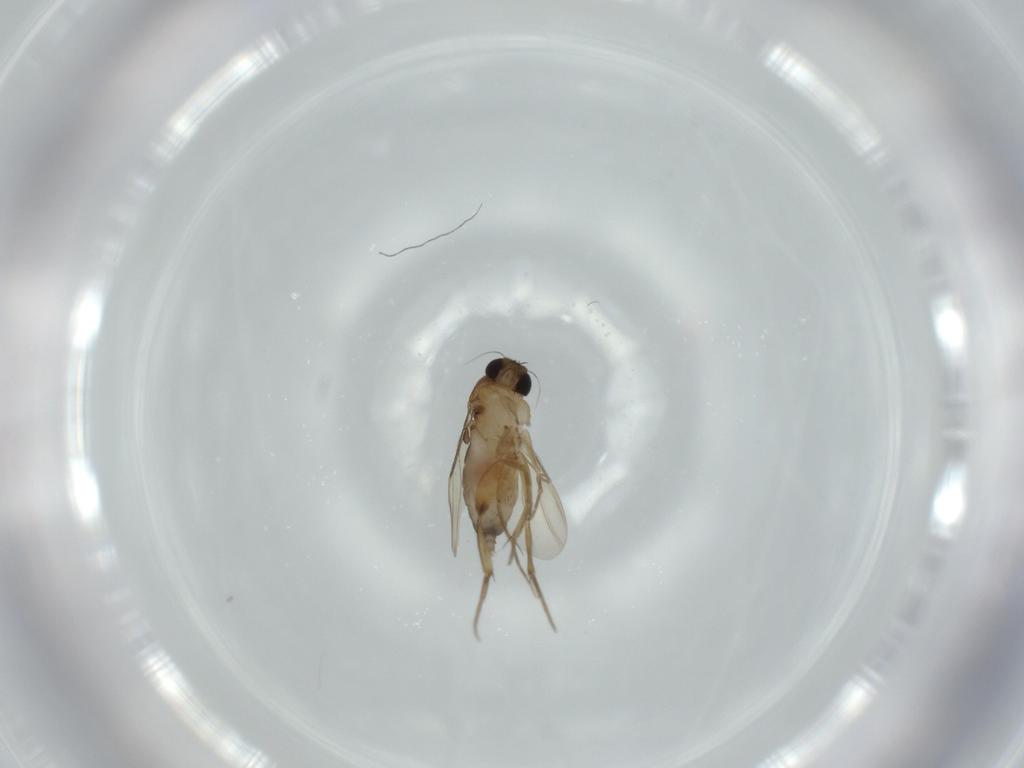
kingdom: Animalia
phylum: Arthropoda
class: Insecta
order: Diptera
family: Phoridae
